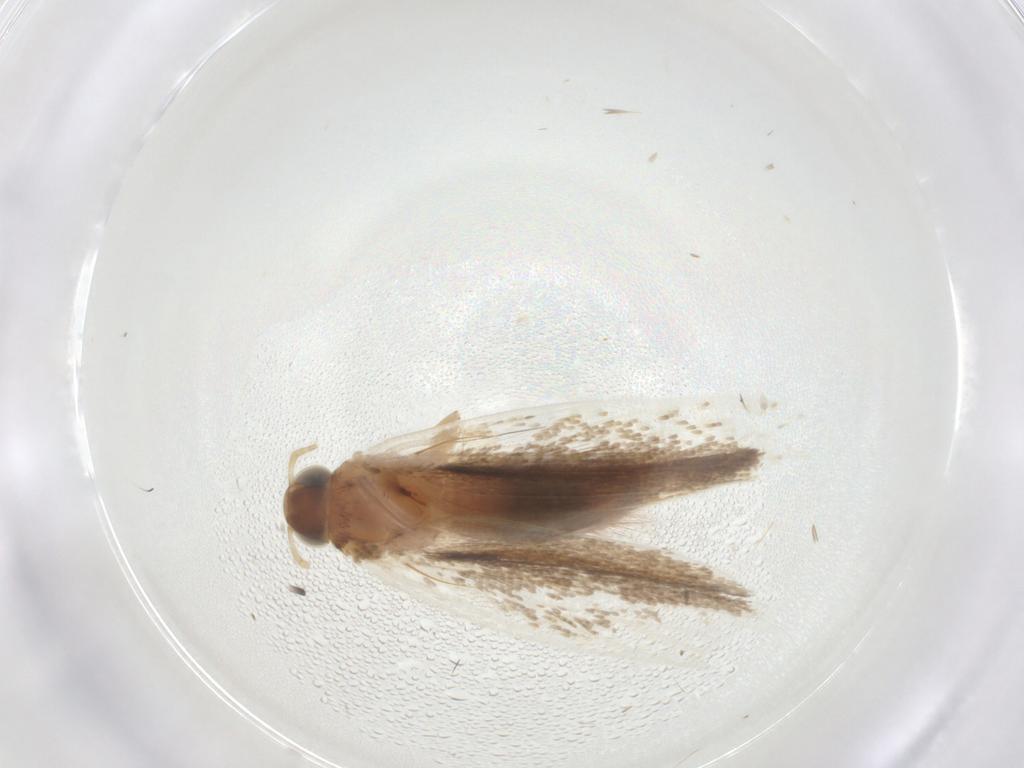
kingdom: Animalia
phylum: Arthropoda
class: Insecta
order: Lepidoptera
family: Gelechiidae
